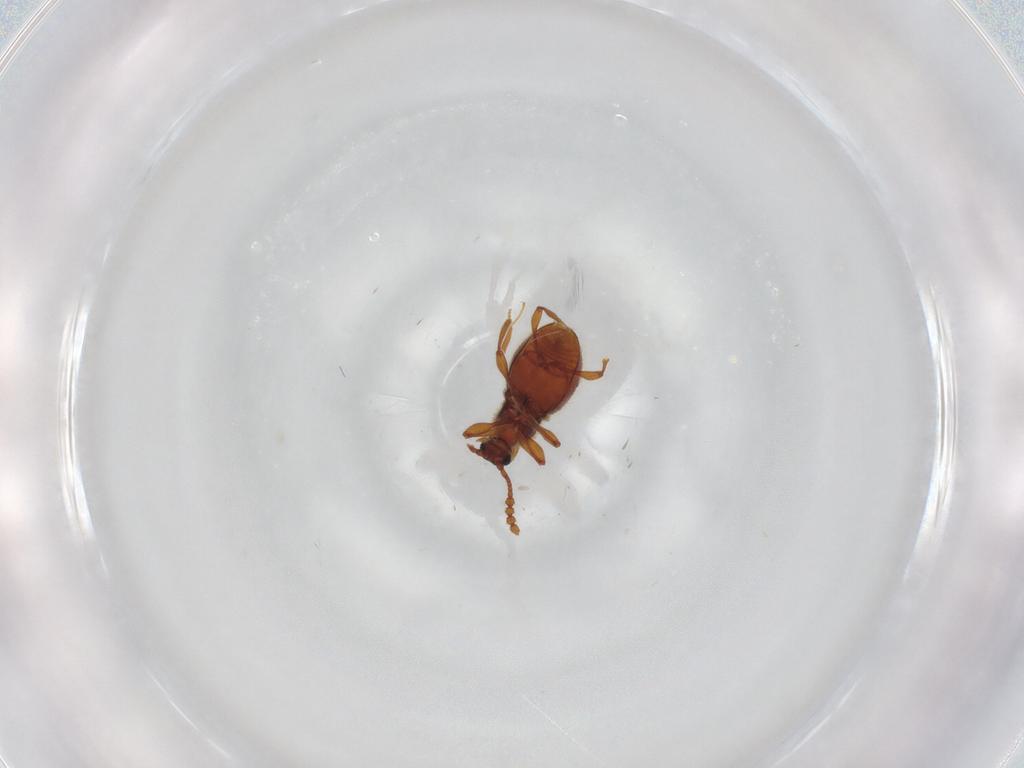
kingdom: Animalia
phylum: Arthropoda
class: Insecta
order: Coleoptera
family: Staphylinidae
